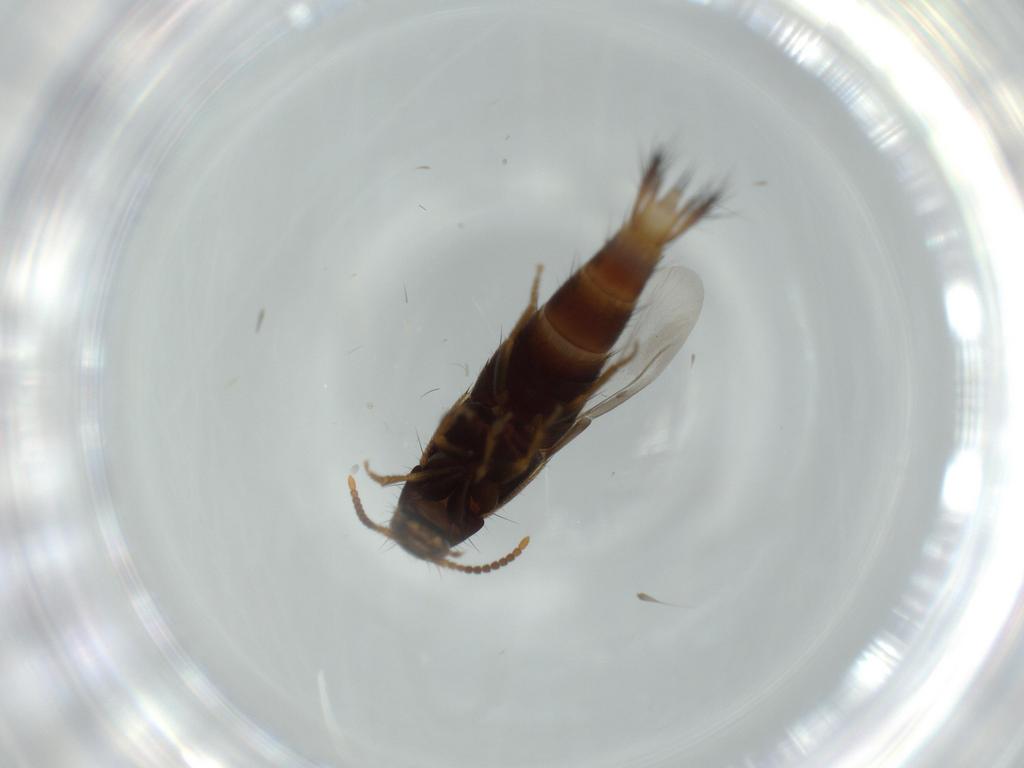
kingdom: Animalia
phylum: Arthropoda
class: Insecta
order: Coleoptera
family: Staphylinidae
